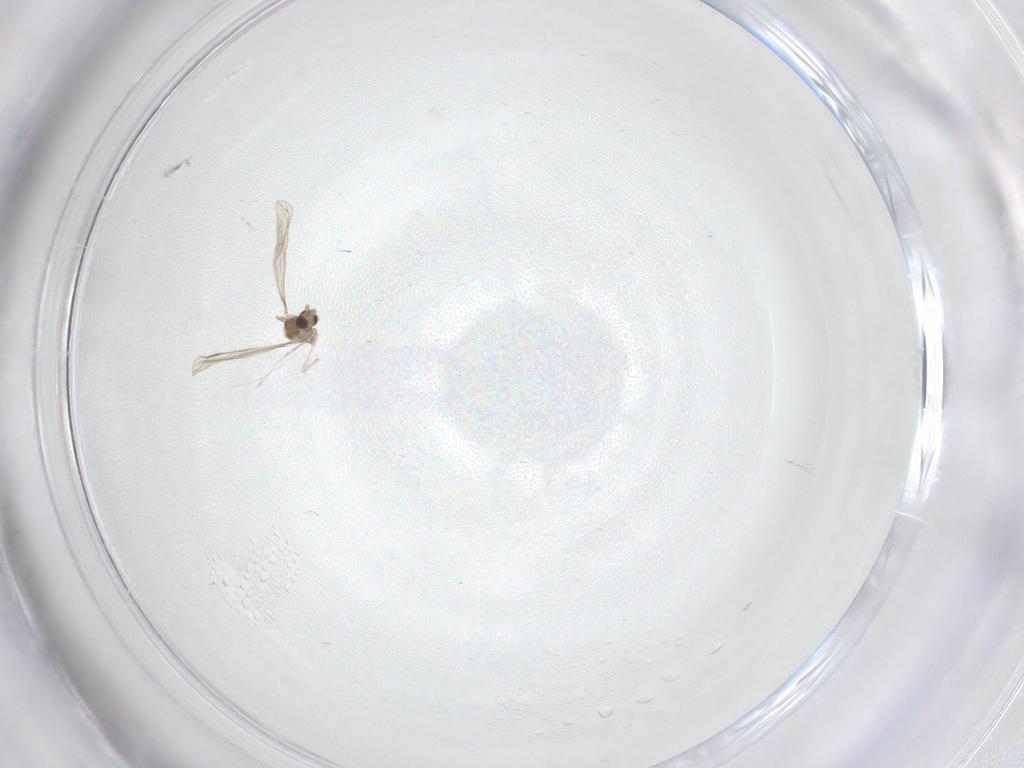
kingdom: Animalia
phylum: Arthropoda
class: Insecta
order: Diptera
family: Cecidomyiidae
